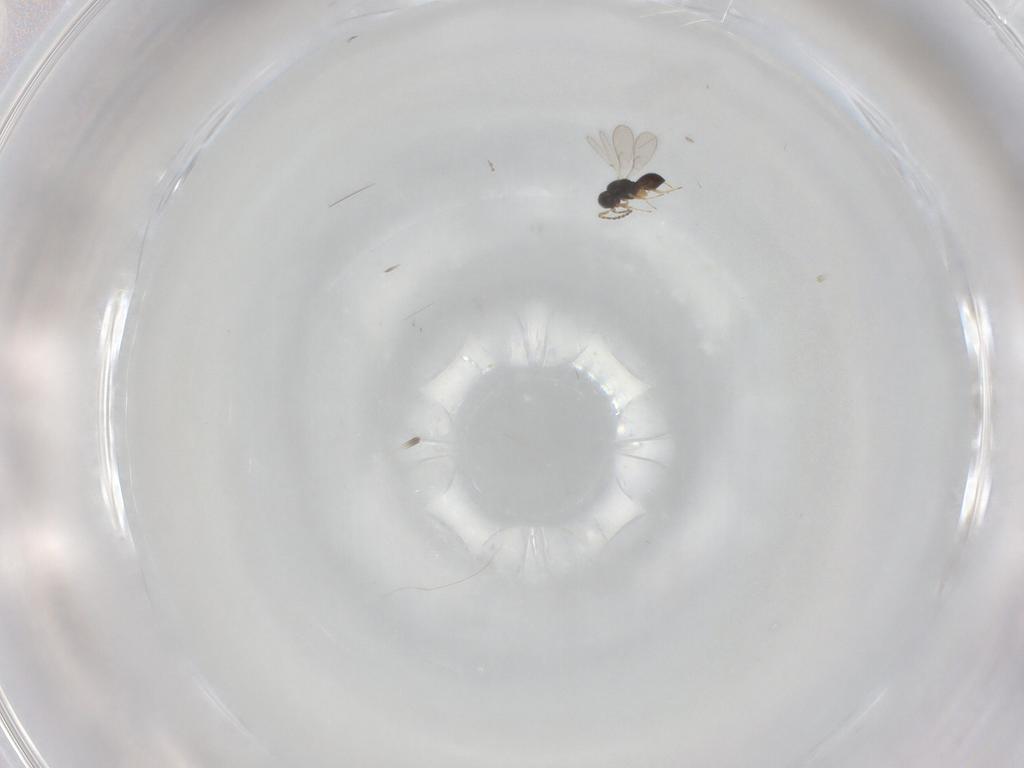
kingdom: Animalia
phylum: Arthropoda
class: Insecta
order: Hymenoptera
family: Scelionidae
